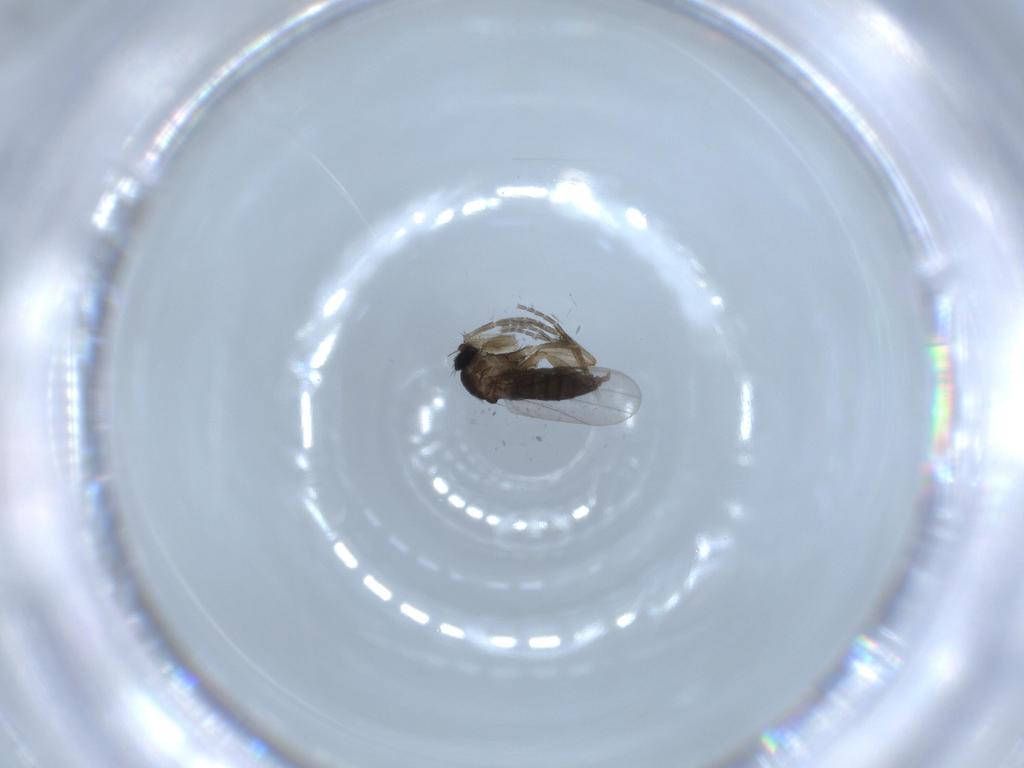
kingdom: Animalia
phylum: Arthropoda
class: Insecta
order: Diptera
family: Phoridae
